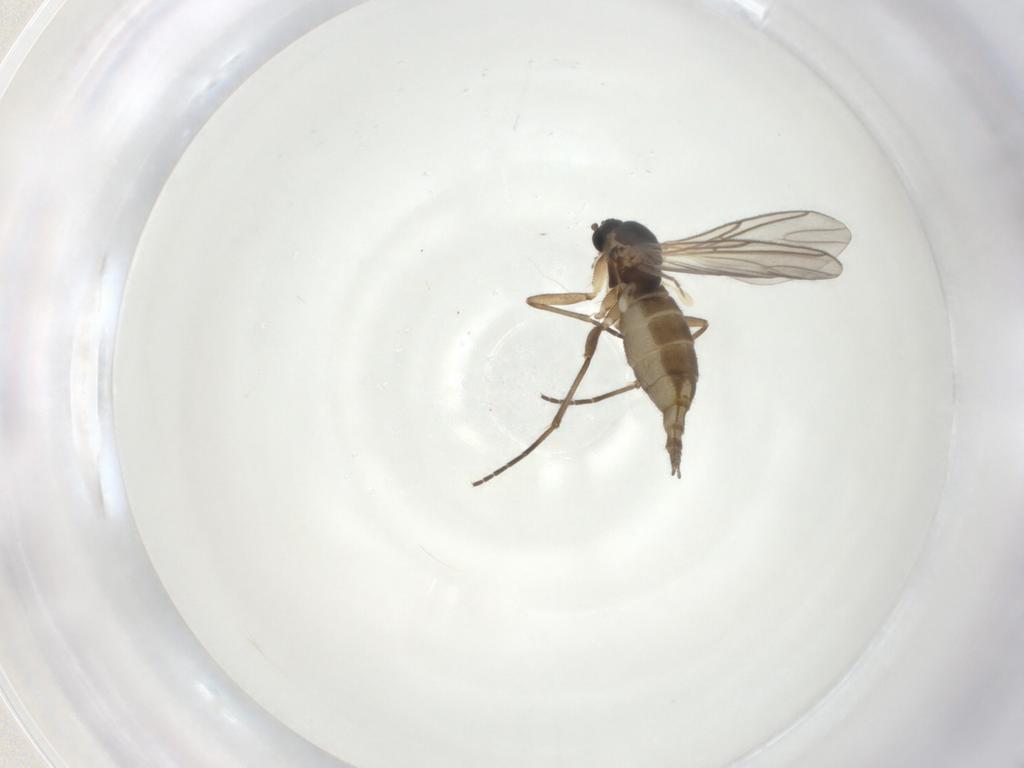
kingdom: Animalia
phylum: Arthropoda
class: Insecta
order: Diptera
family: Chironomidae
